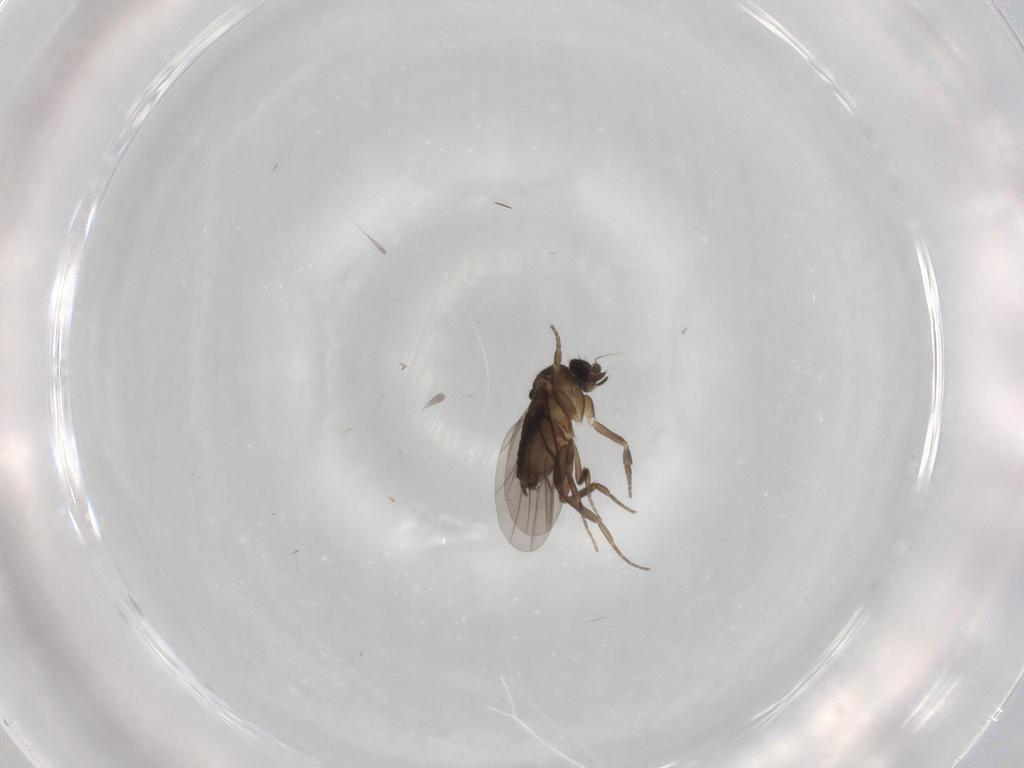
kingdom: Animalia
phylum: Arthropoda
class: Insecta
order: Diptera
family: Phoridae
